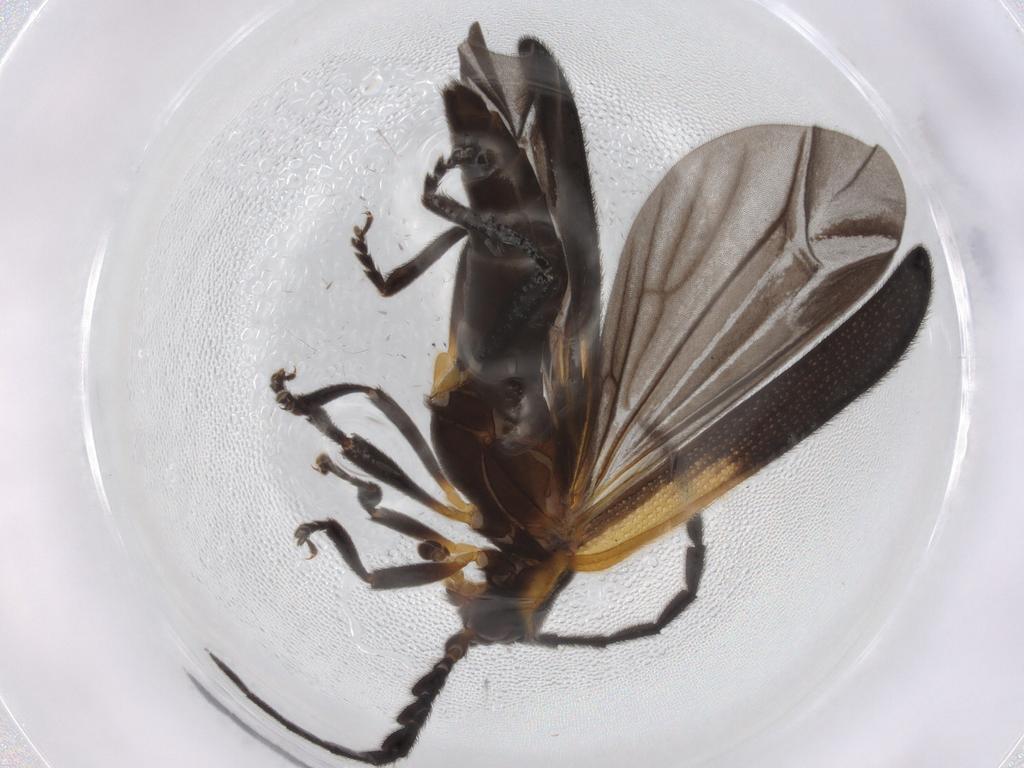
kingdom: Animalia
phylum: Arthropoda
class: Insecta
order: Coleoptera
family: Lycidae
